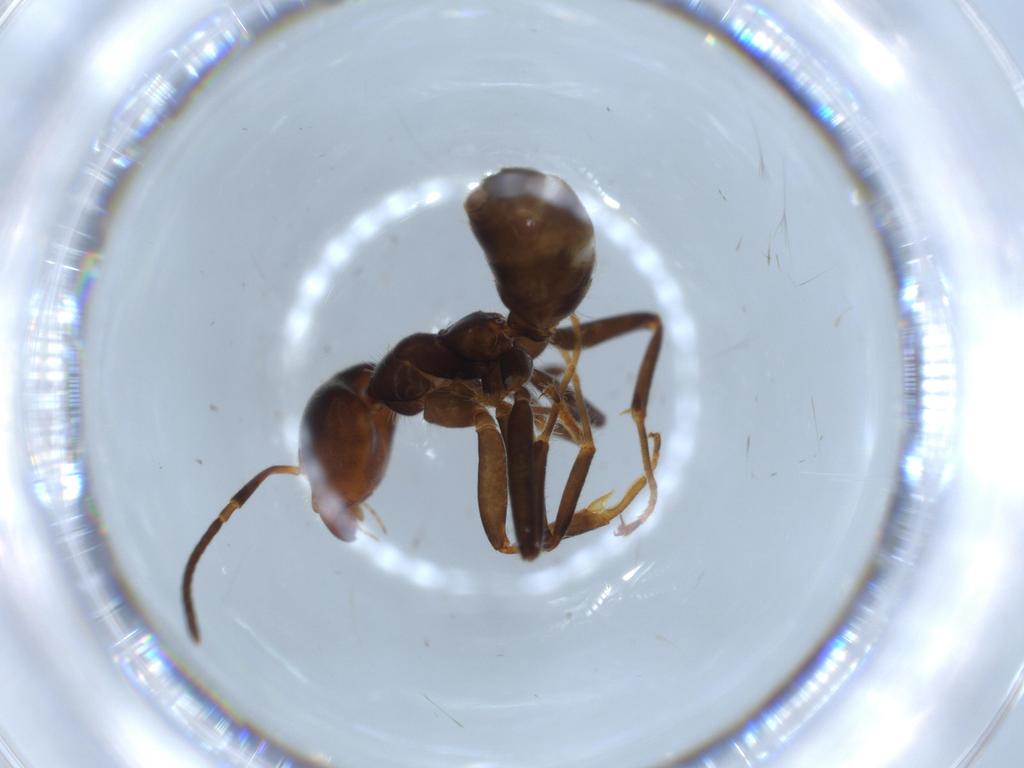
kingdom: Animalia
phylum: Arthropoda
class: Insecta
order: Hymenoptera
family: Formicidae
